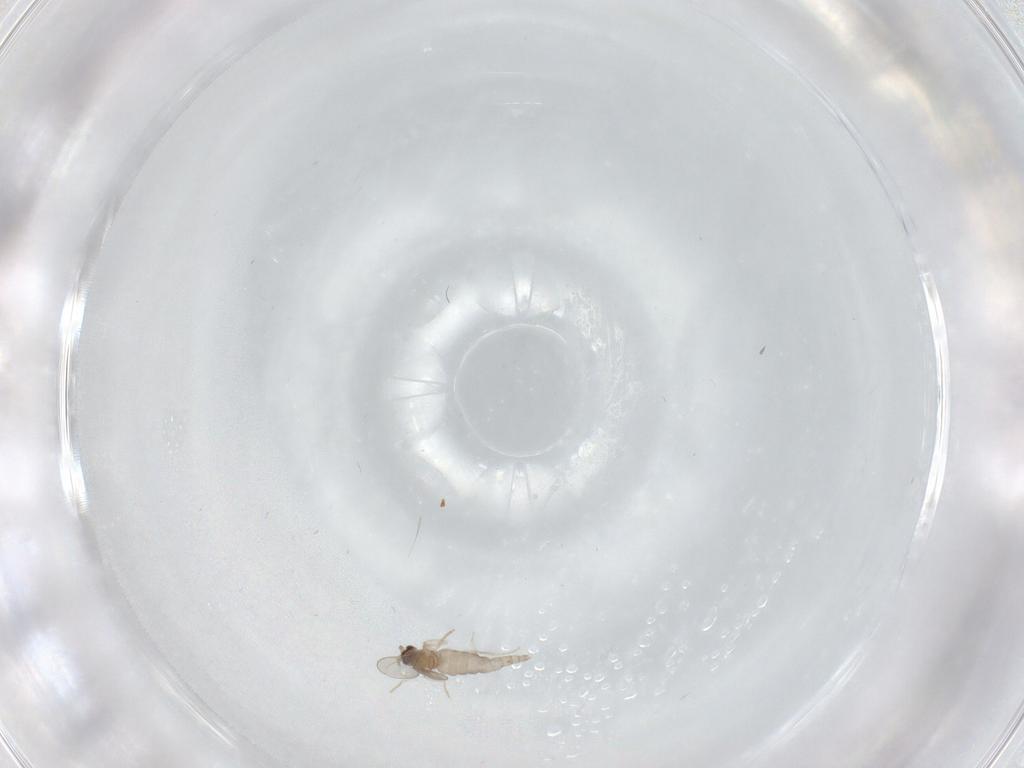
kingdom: Animalia
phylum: Arthropoda
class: Insecta
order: Diptera
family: Cecidomyiidae
